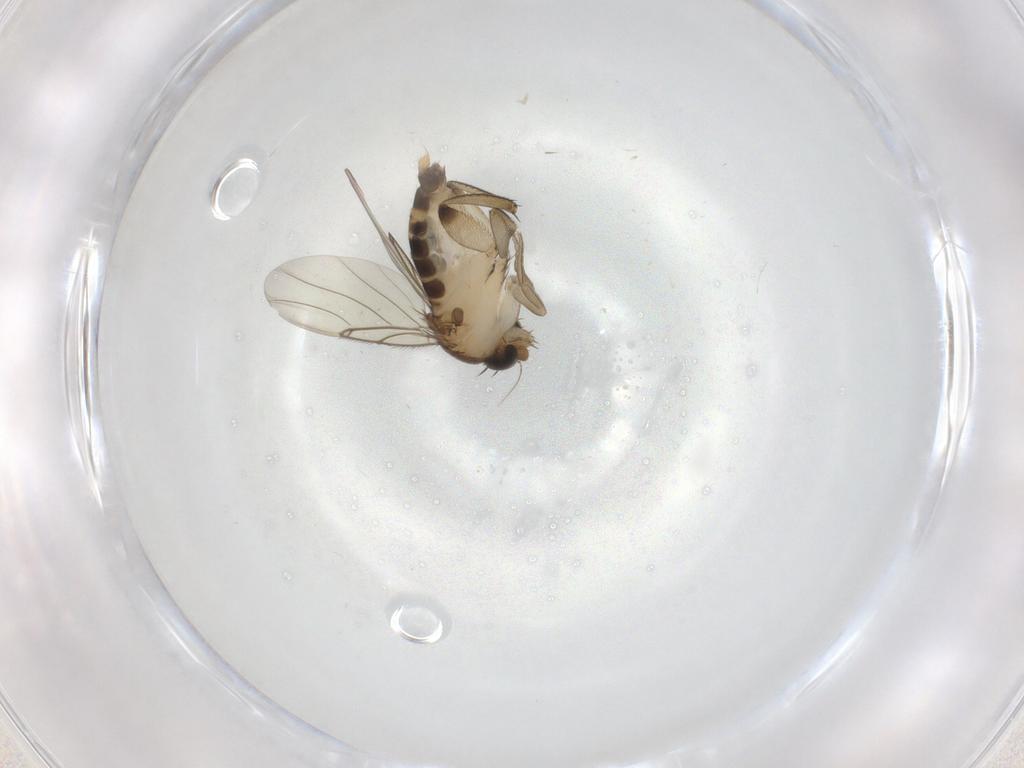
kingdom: Animalia
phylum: Arthropoda
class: Insecta
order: Diptera
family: Phoridae
